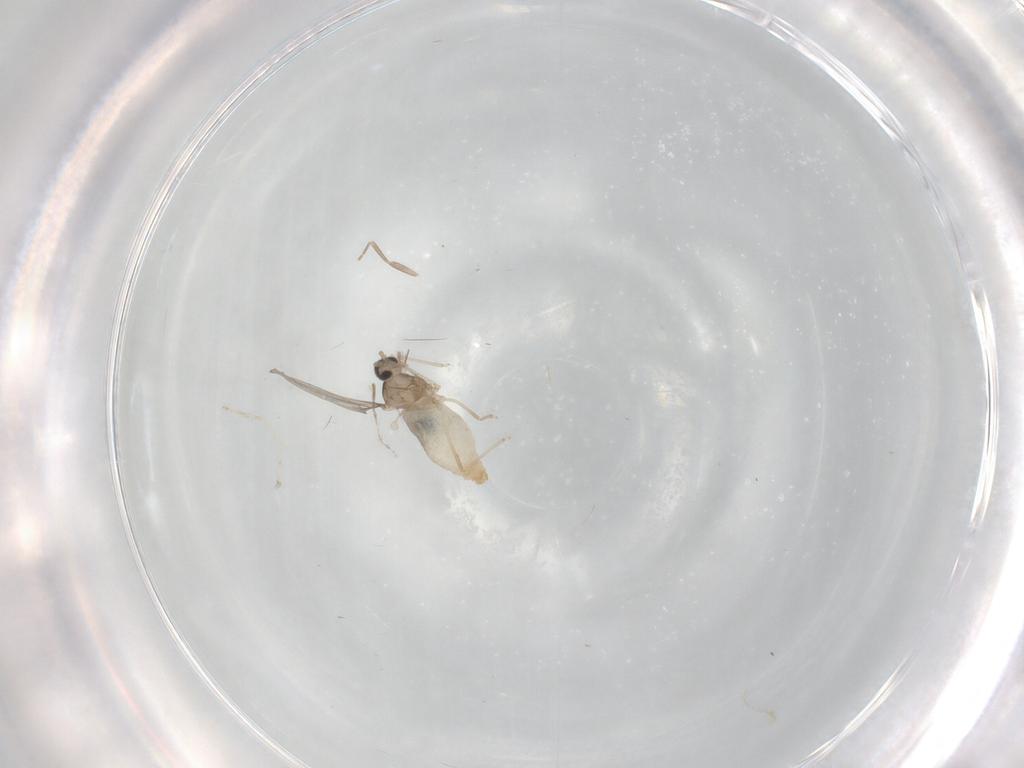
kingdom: Animalia
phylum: Arthropoda
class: Insecta
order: Diptera
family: Psychodidae
